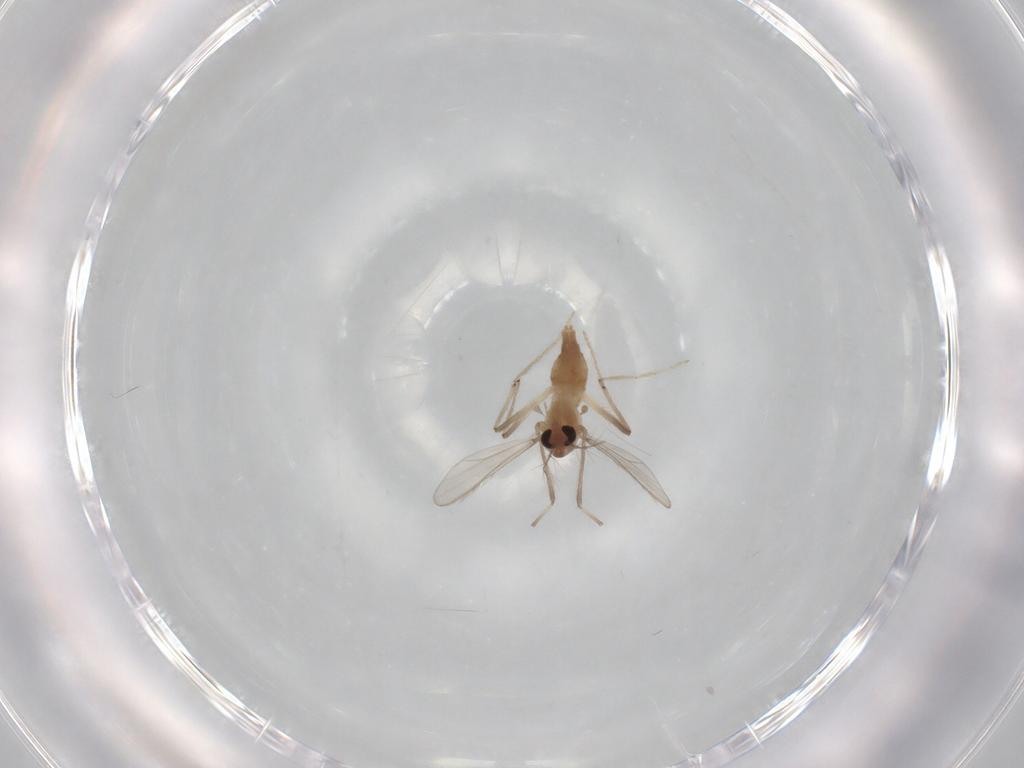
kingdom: Animalia
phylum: Arthropoda
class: Insecta
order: Diptera
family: Chironomidae
